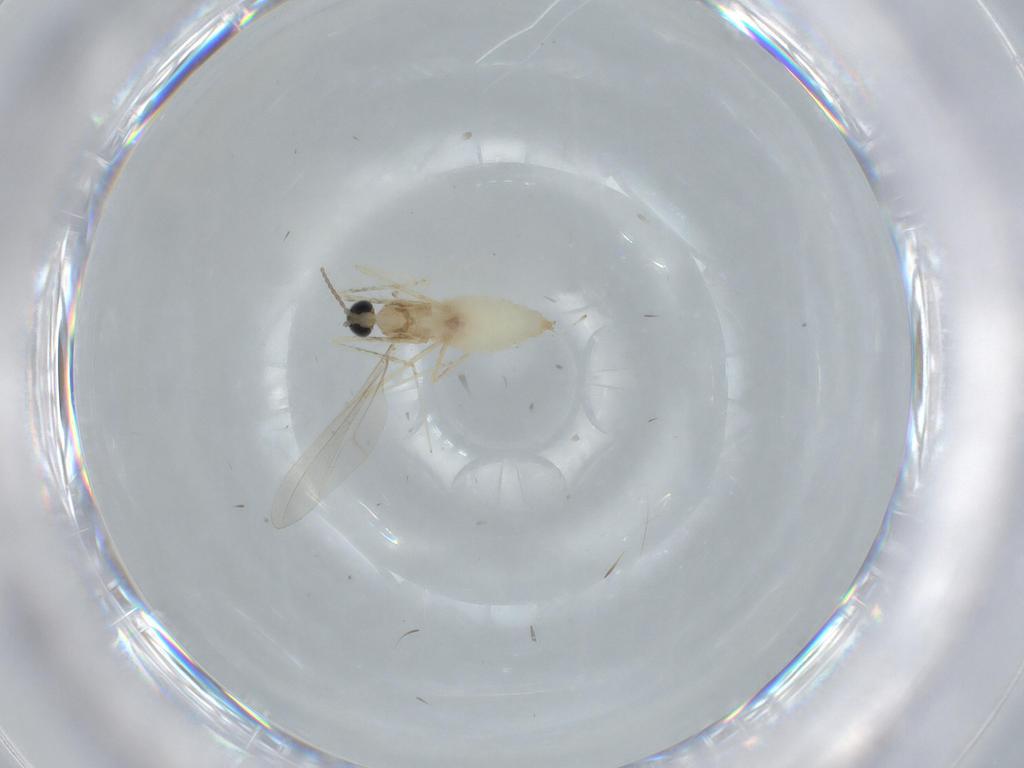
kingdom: Animalia
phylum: Arthropoda
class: Insecta
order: Diptera
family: Cecidomyiidae
